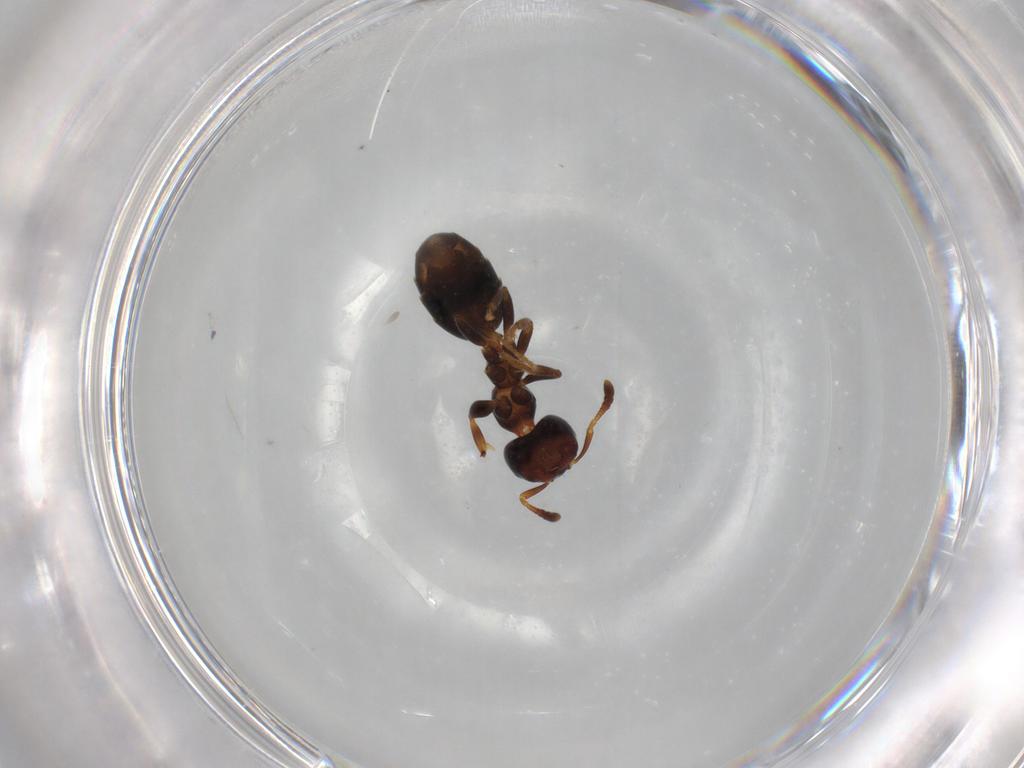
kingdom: Animalia
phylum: Arthropoda
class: Insecta
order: Hymenoptera
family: Formicidae
